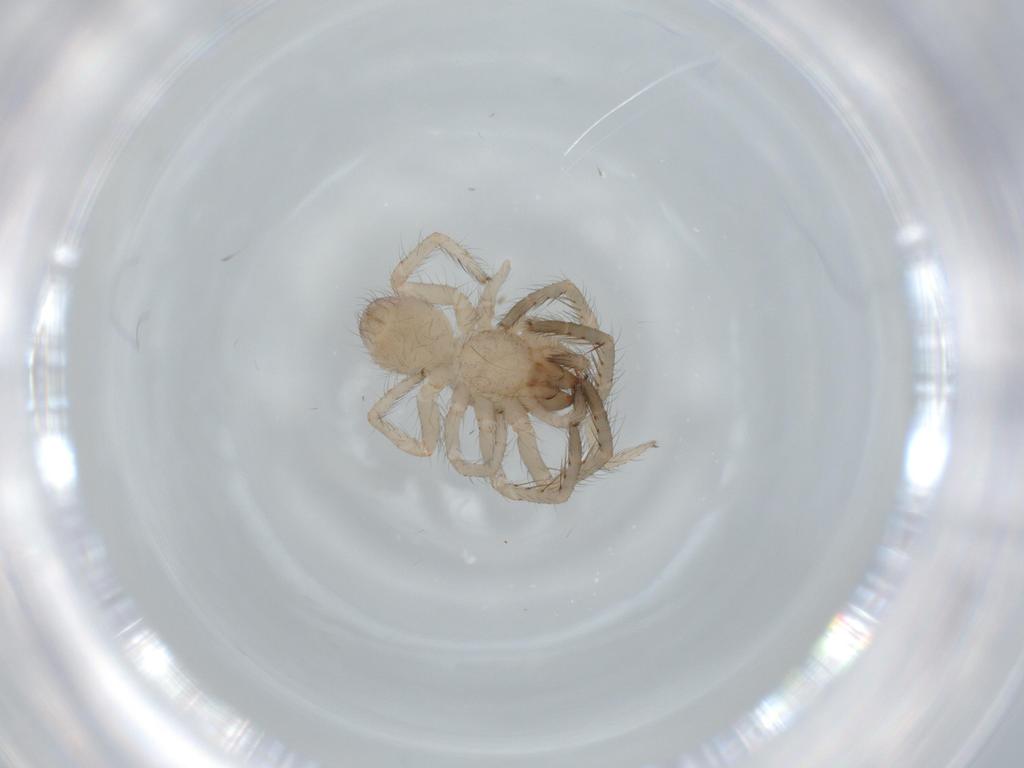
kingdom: Animalia
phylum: Arthropoda
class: Arachnida
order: Araneae
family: Segestriidae
